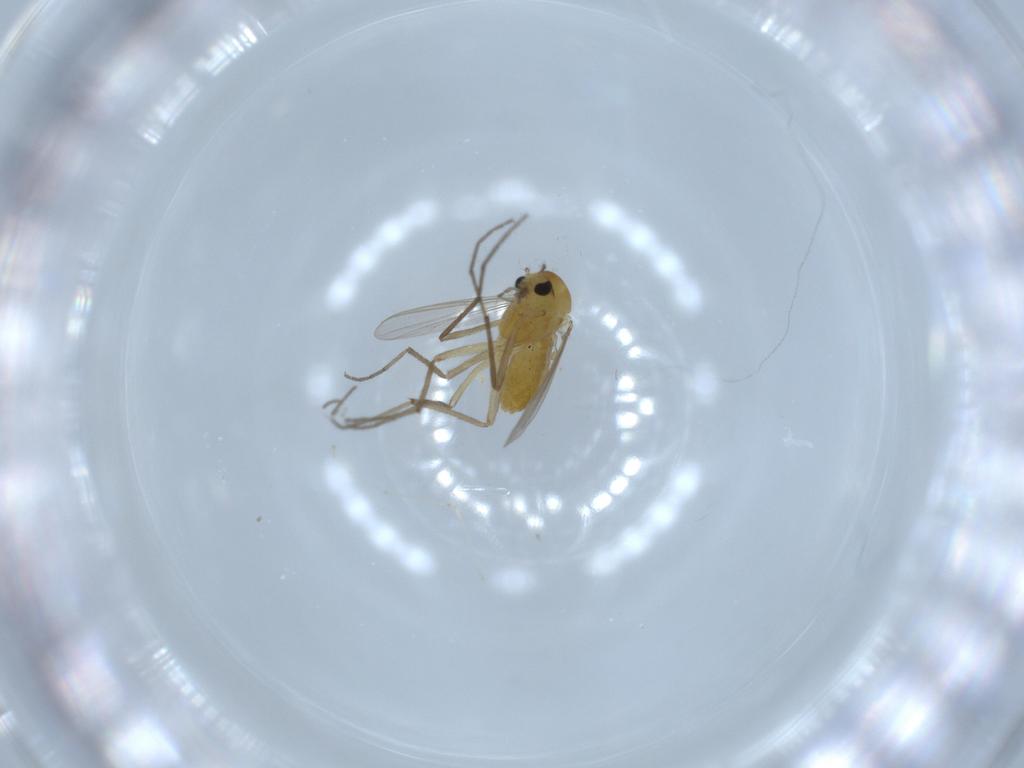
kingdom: Animalia
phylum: Arthropoda
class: Insecta
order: Diptera
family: Chironomidae
